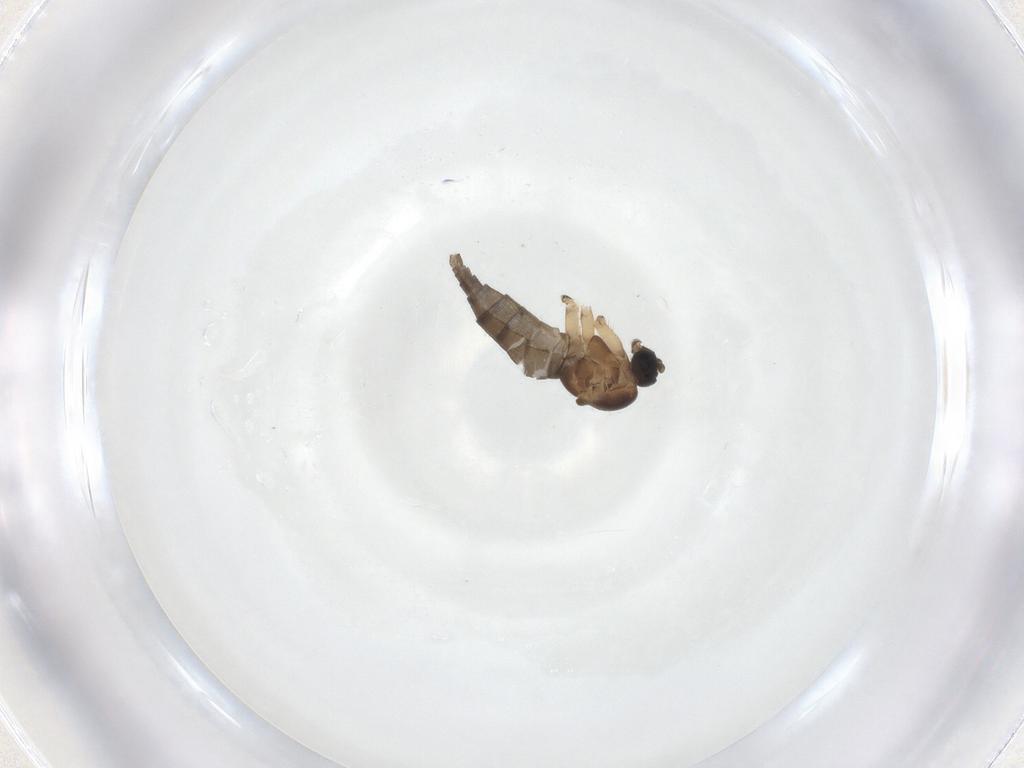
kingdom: Animalia
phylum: Arthropoda
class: Insecta
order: Diptera
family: Sciaridae
